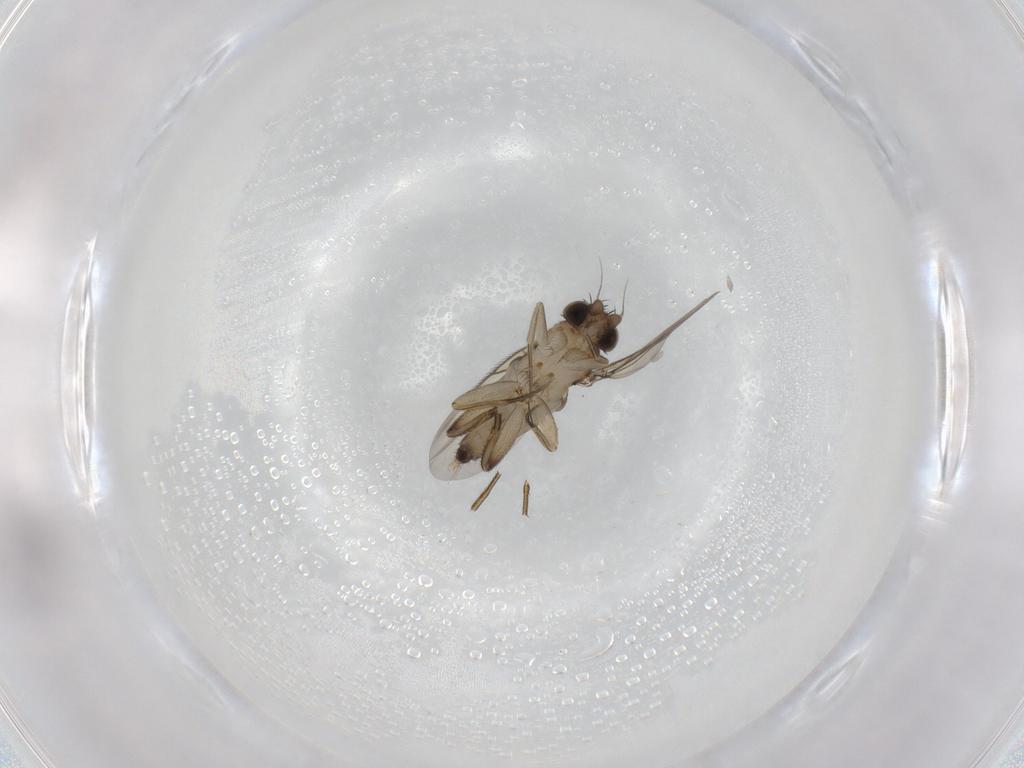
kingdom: Animalia
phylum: Arthropoda
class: Insecta
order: Diptera
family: Phoridae
